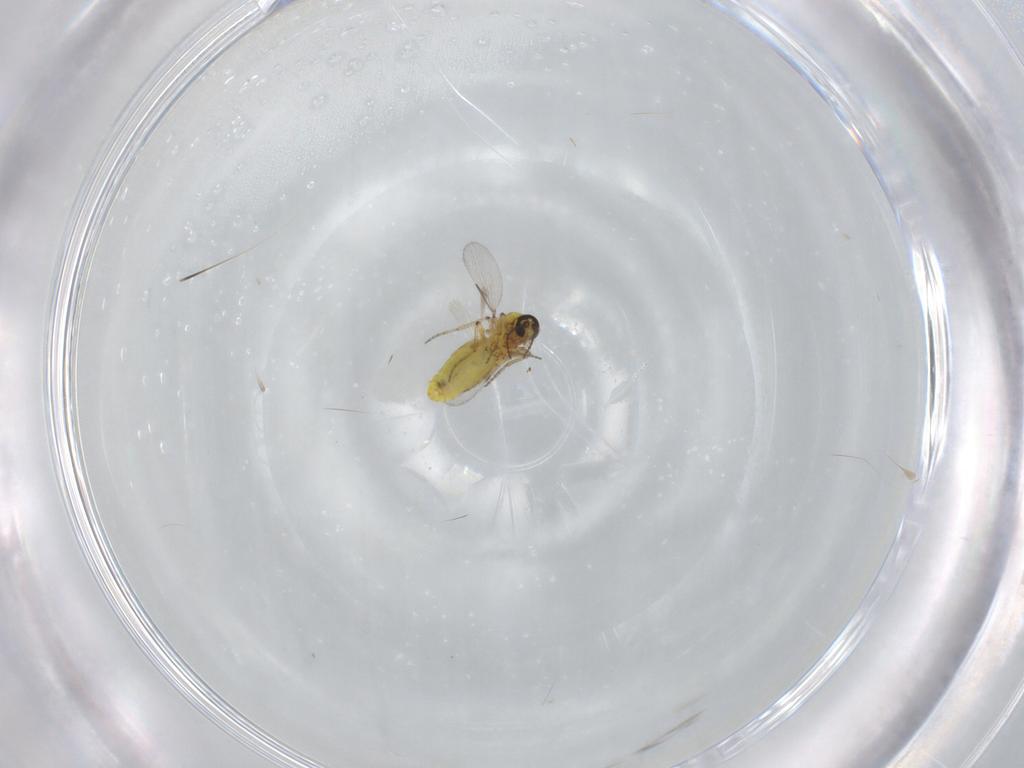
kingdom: Animalia
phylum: Arthropoda
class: Insecta
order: Diptera
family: Ceratopogonidae
